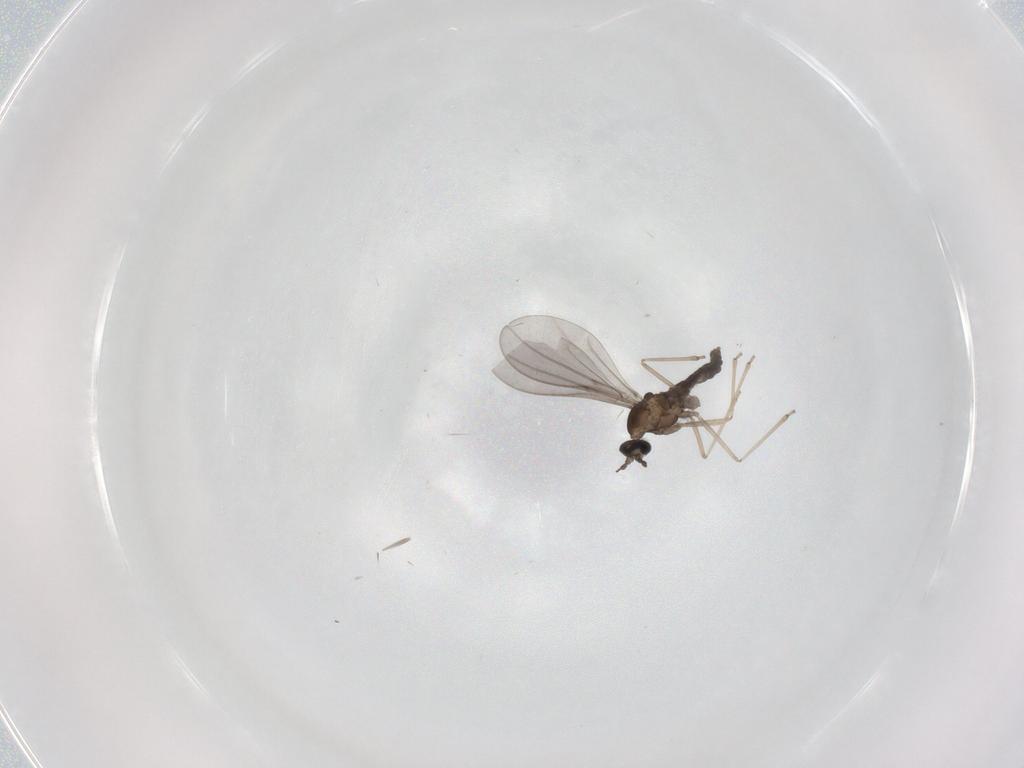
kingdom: Animalia
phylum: Arthropoda
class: Insecta
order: Diptera
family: Cecidomyiidae
